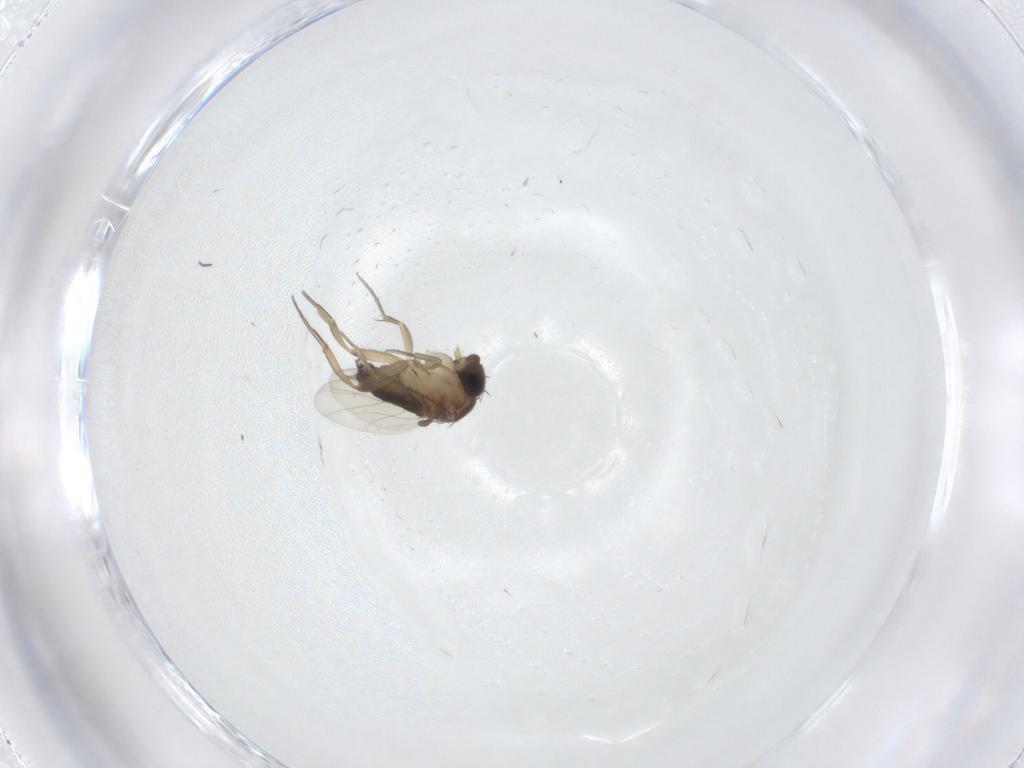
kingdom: Animalia
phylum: Arthropoda
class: Insecta
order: Diptera
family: Phoridae
